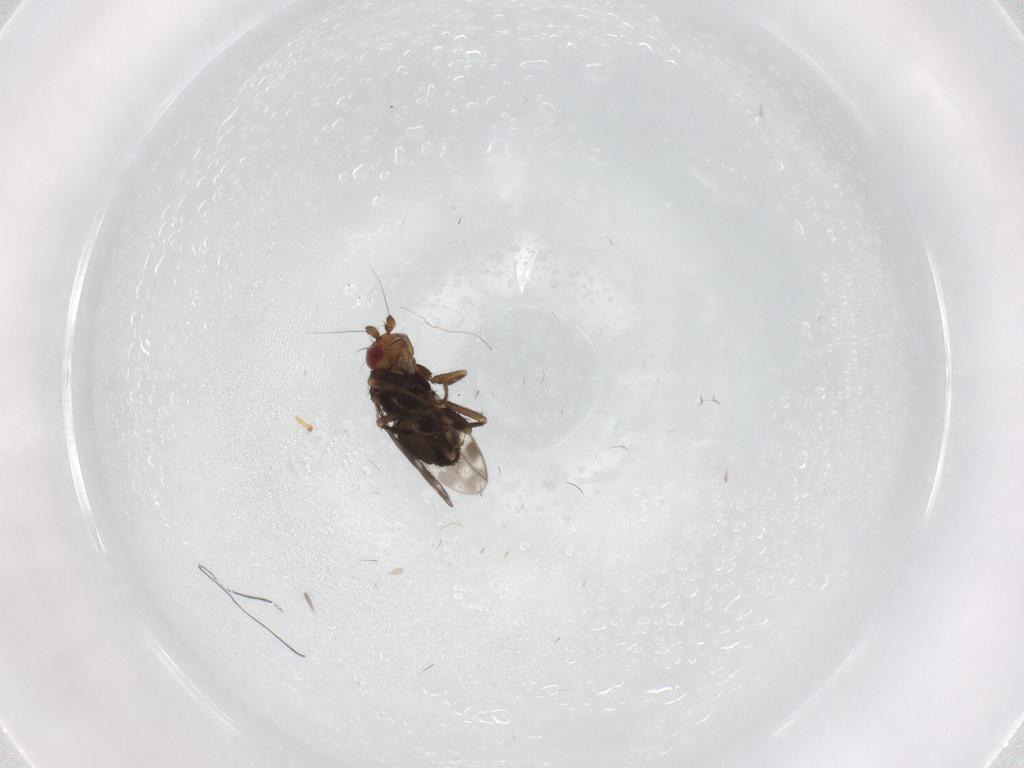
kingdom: Animalia
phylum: Arthropoda
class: Insecta
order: Diptera
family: Sphaeroceridae
